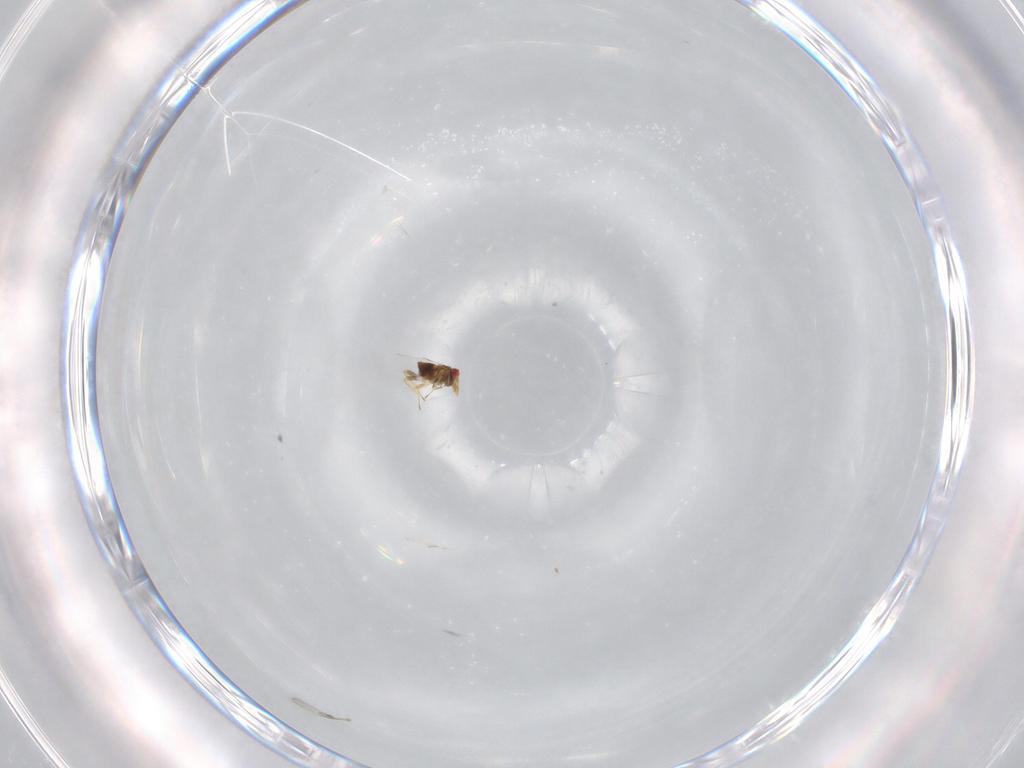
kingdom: Animalia
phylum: Arthropoda
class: Insecta
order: Hymenoptera
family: Trichogrammatidae
